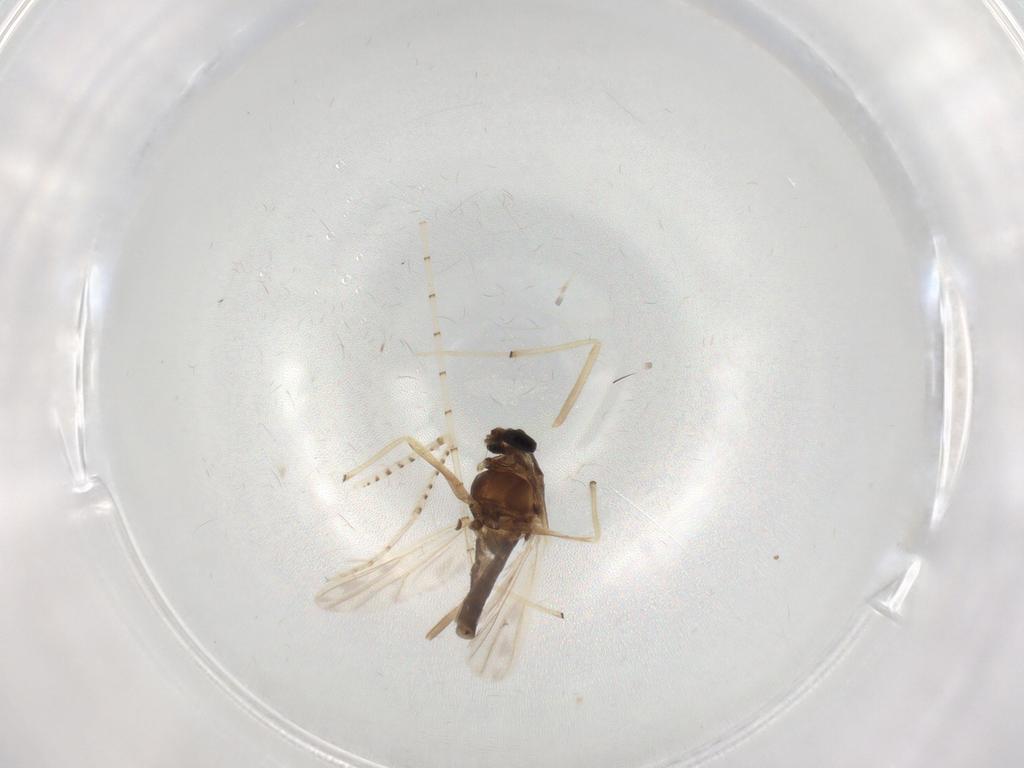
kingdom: Animalia
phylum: Arthropoda
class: Insecta
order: Diptera
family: Chironomidae
